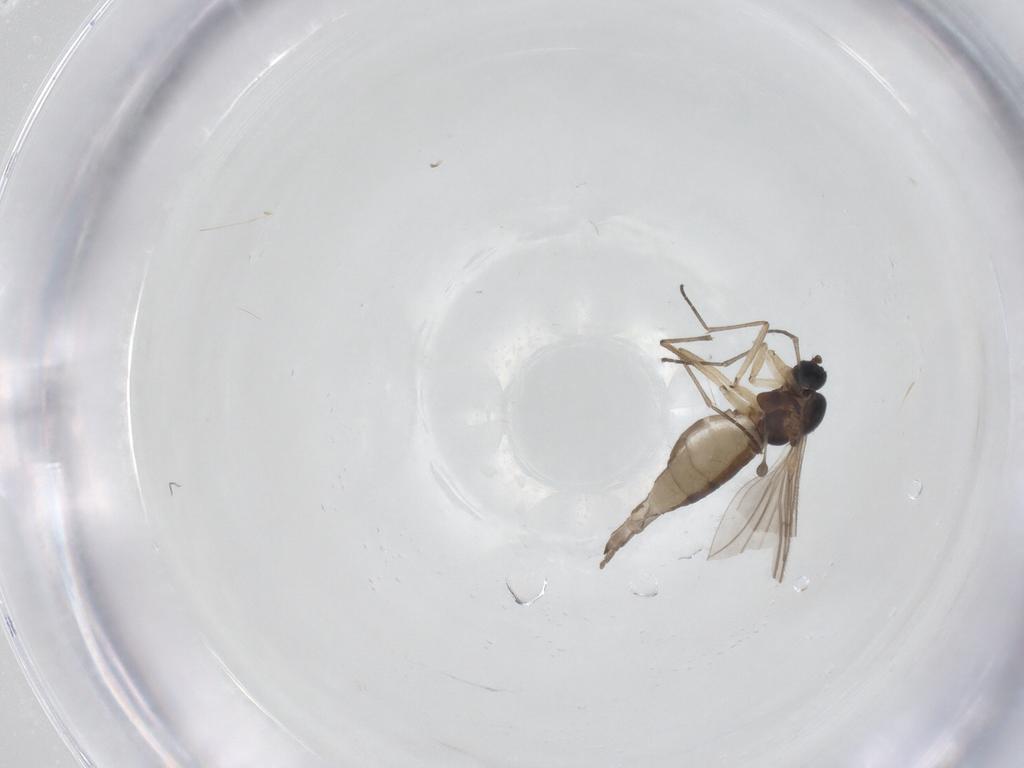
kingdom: Animalia
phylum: Arthropoda
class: Insecta
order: Diptera
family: Sciaridae
